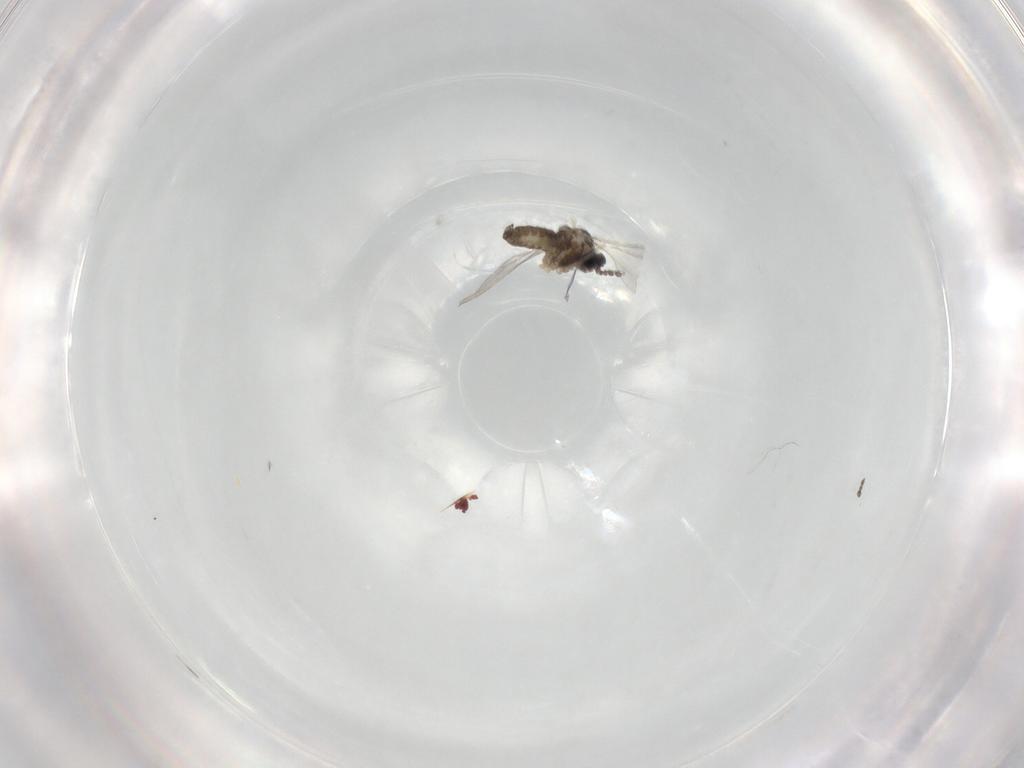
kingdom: Animalia
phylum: Arthropoda
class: Insecta
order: Diptera
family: Cecidomyiidae
